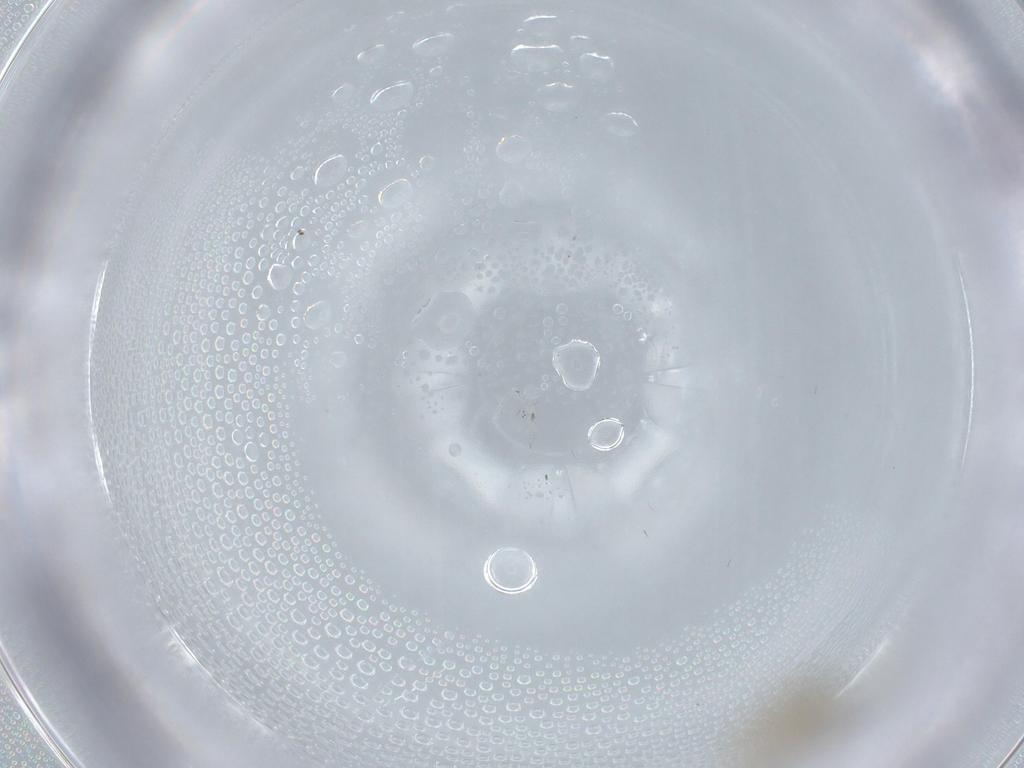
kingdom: Animalia
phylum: Arthropoda
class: Insecta
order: Diptera
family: Chironomidae
